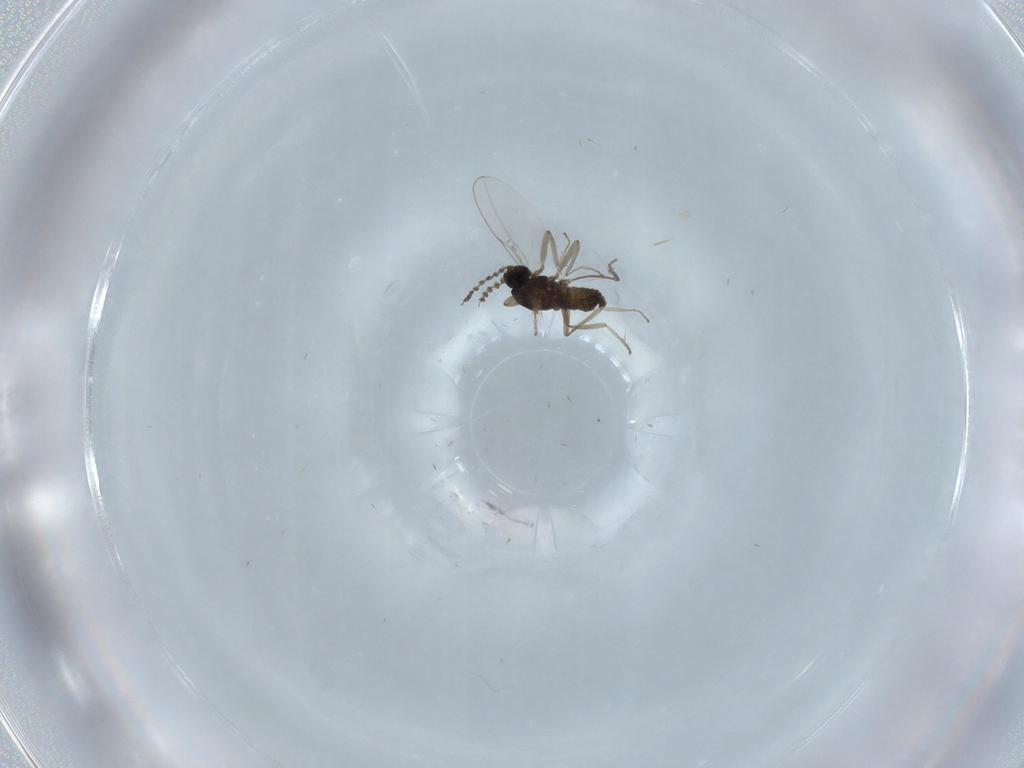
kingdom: Animalia
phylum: Arthropoda
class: Insecta
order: Diptera
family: Cecidomyiidae
